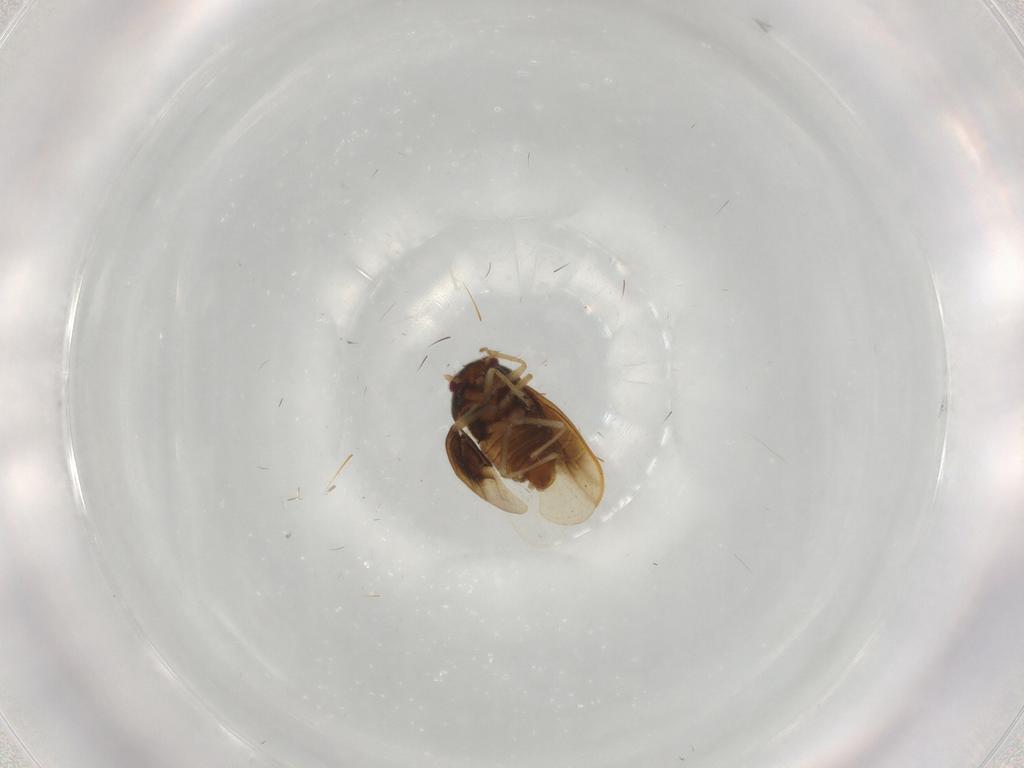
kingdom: Animalia
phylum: Arthropoda
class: Insecta
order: Hemiptera
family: Schizopteridae
